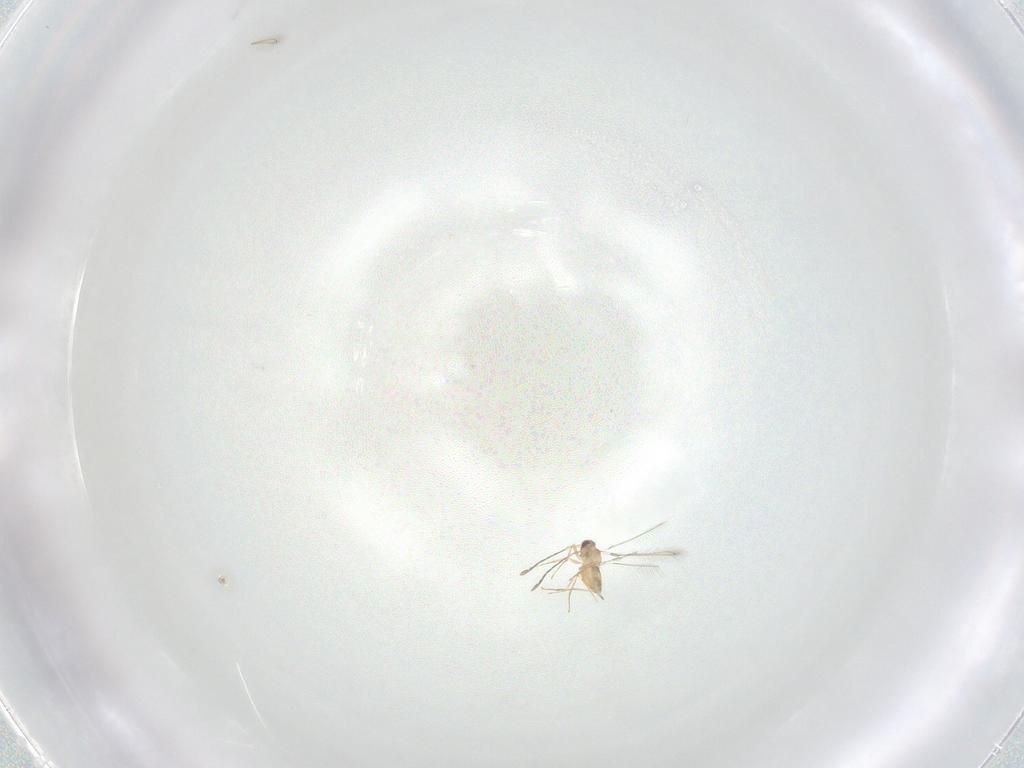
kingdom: Animalia
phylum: Arthropoda
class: Insecta
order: Hymenoptera
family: Mymaridae
